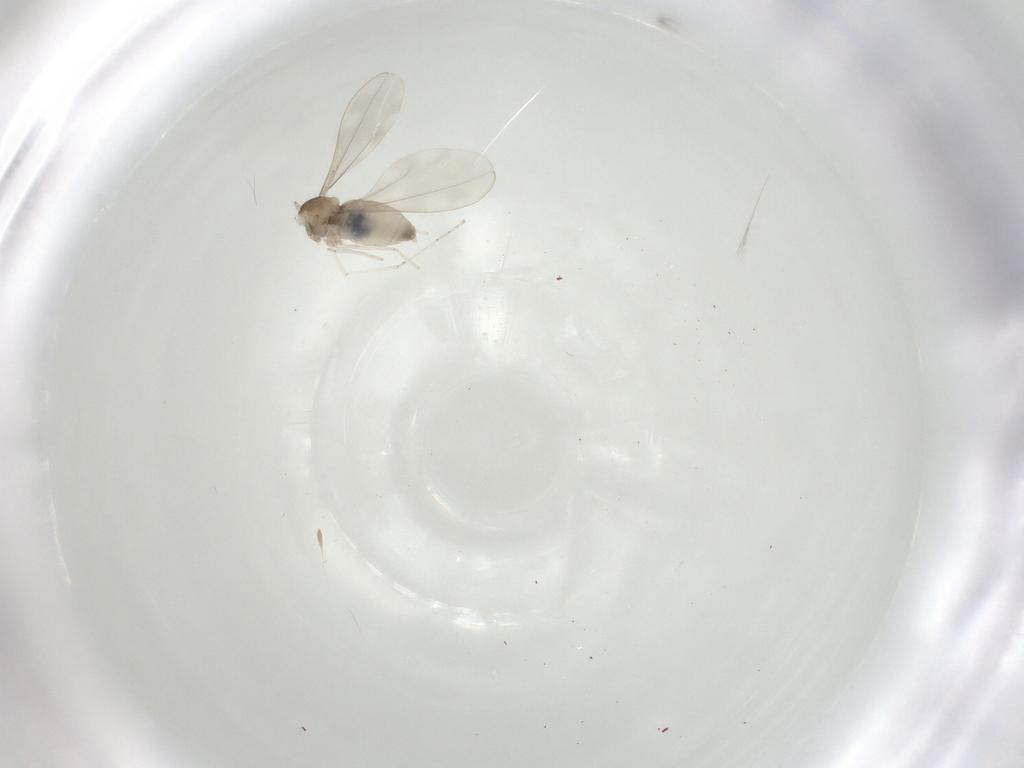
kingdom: Animalia
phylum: Arthropoda
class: Insecta
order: Diptera
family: Cecidomyiidae
